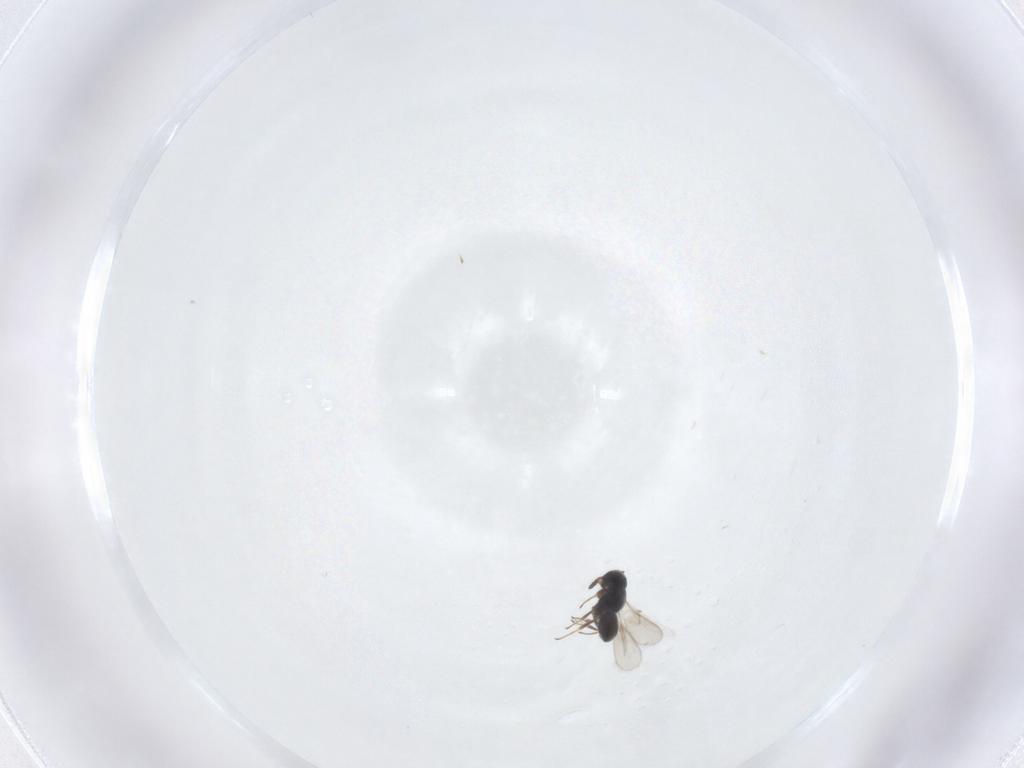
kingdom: Animalia
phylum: Arthropoda
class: Insecta
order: Hymenoptera
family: Scelionidae
